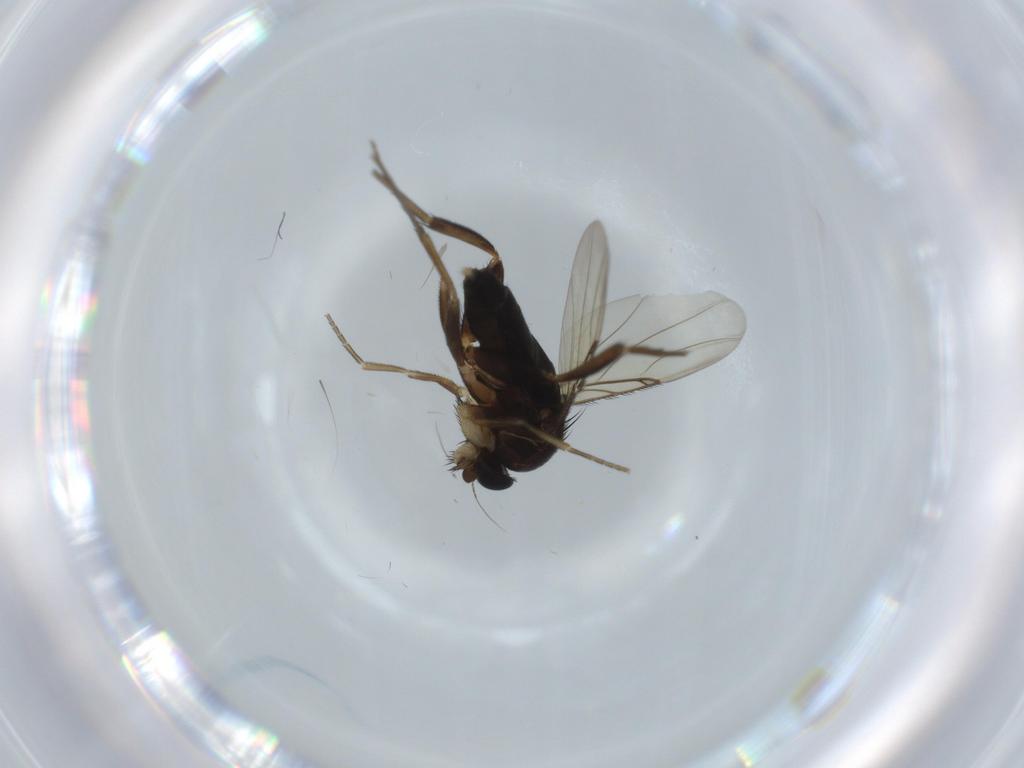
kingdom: Animalia
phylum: Arthropoda
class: Insecta
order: Diptera
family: Phoridae
